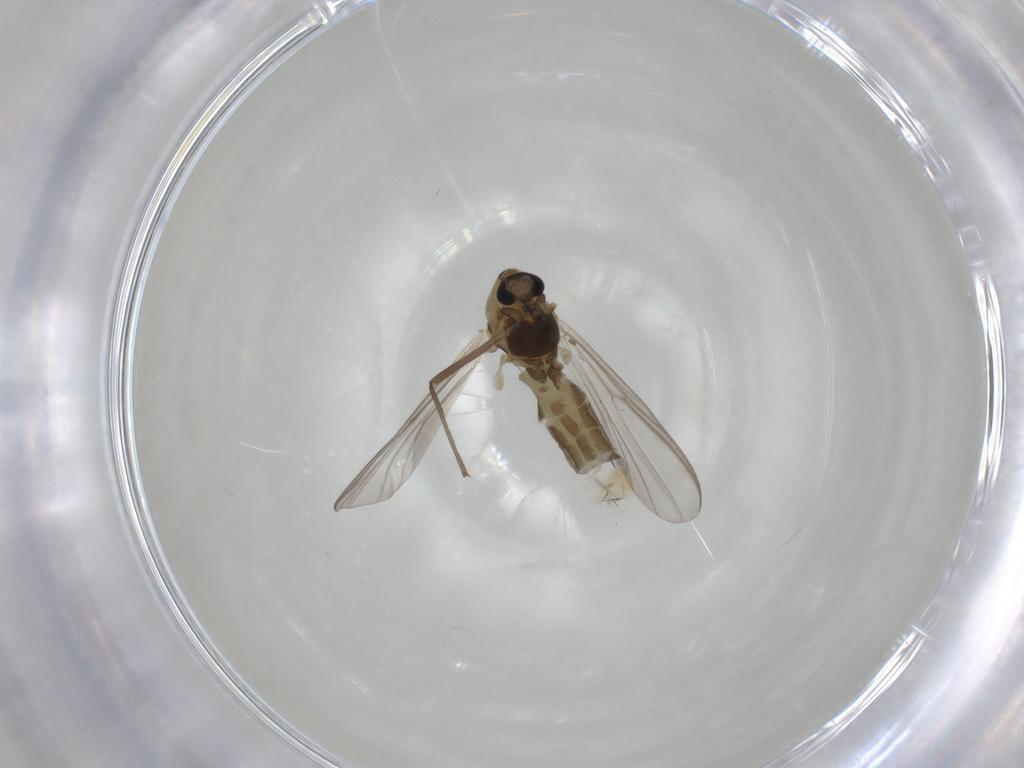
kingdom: Animalia
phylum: Arthropoda
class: Insecta
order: Diptera
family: Chironomidae
